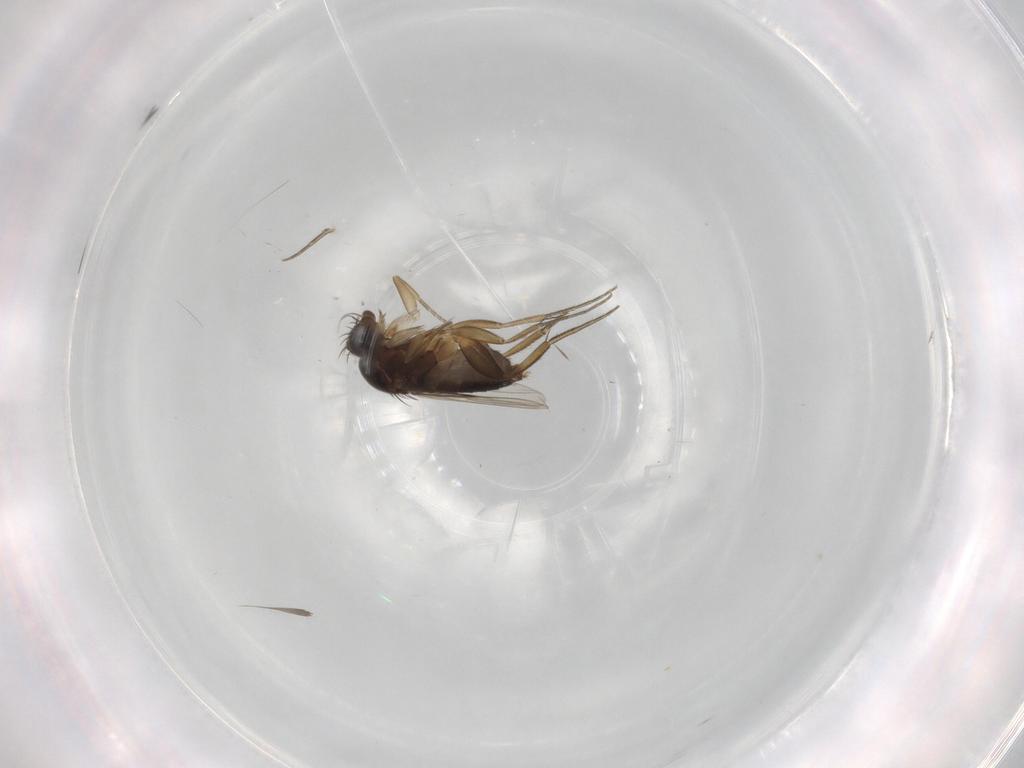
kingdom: Animalia
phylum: Arthropoda
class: Insecta
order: Diptera
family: Phoridae
